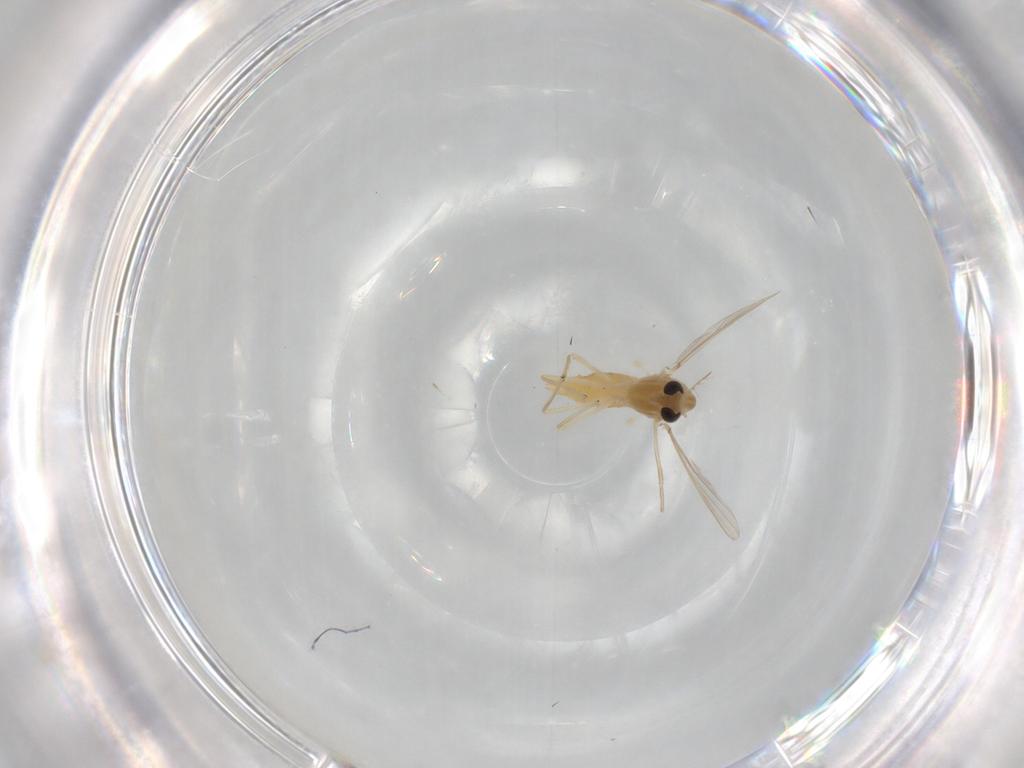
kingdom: Animalia
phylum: Arthropoda
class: Insecta
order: Diptera
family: Chironomidae
